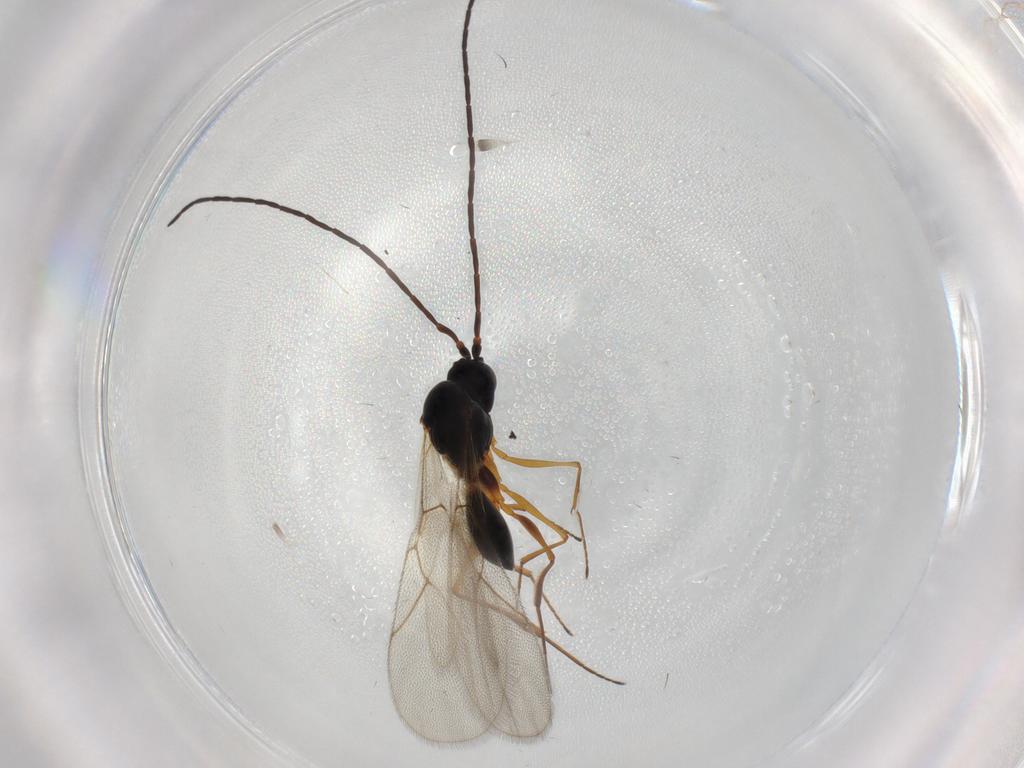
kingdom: Animalia
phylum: Arthropoda
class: Insecta
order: Hymenoptera
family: Figitidae
